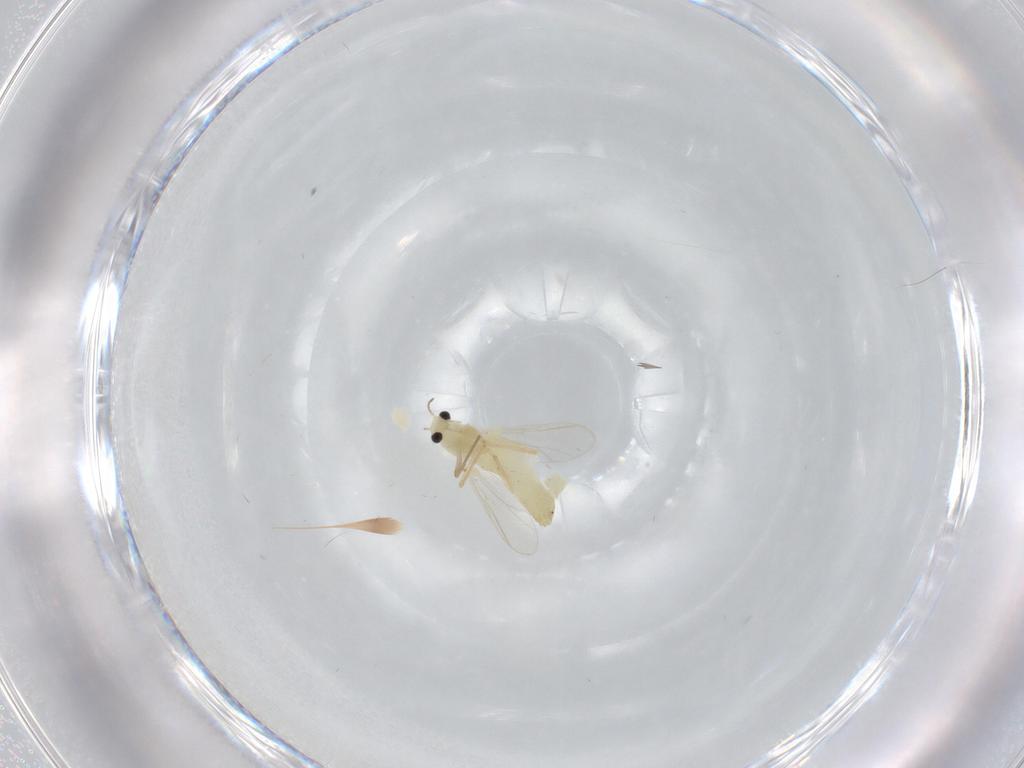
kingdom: Animalia
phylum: Arthropoda
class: Insecta
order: Diptera
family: Chironomidae
